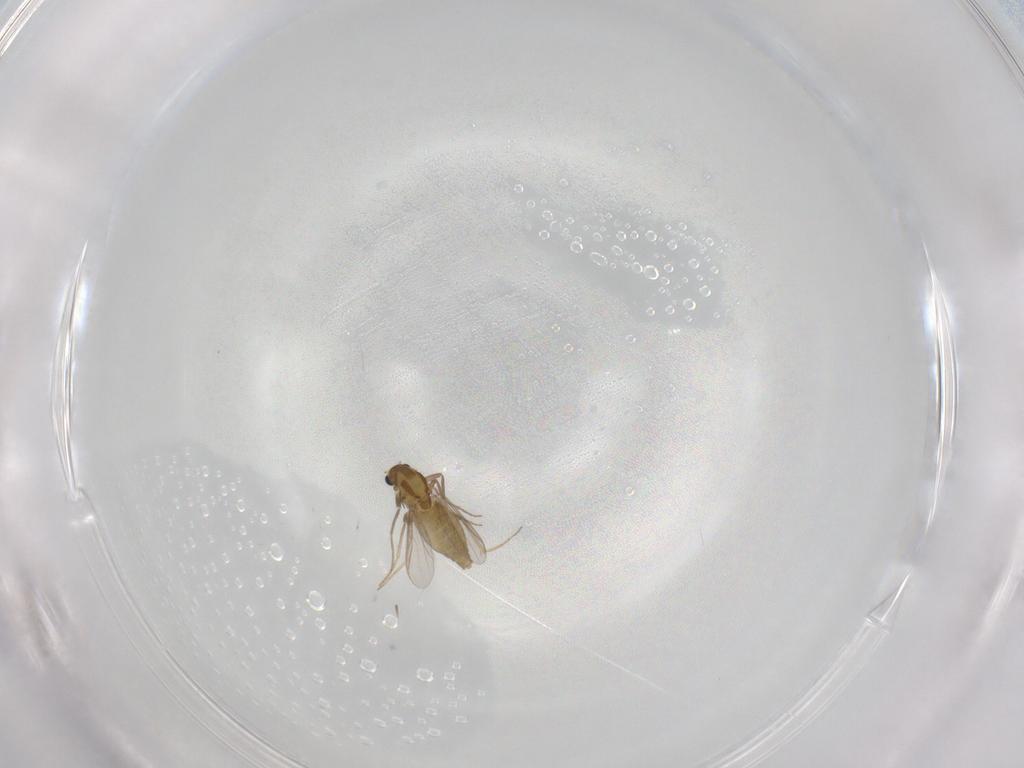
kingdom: Animalia
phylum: Arthropoda
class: Insecta
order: Diptera
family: Chironomidae
